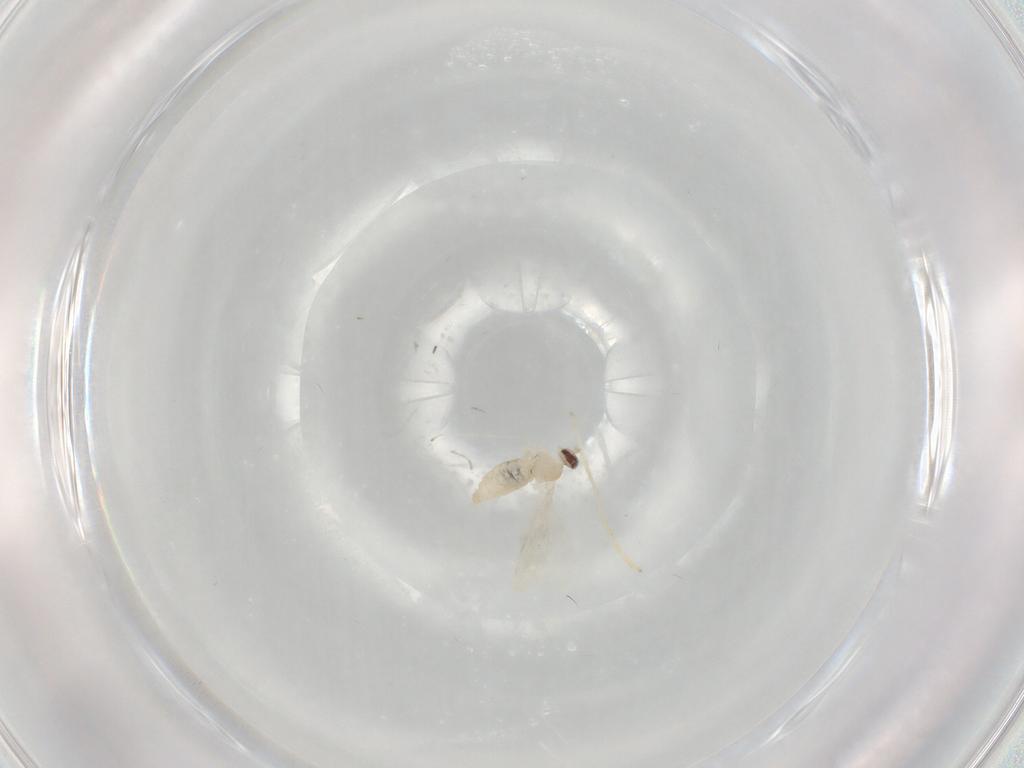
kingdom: Animalia
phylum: Arthropoda
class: Insecta
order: Diptera
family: Cecidomyiidae
